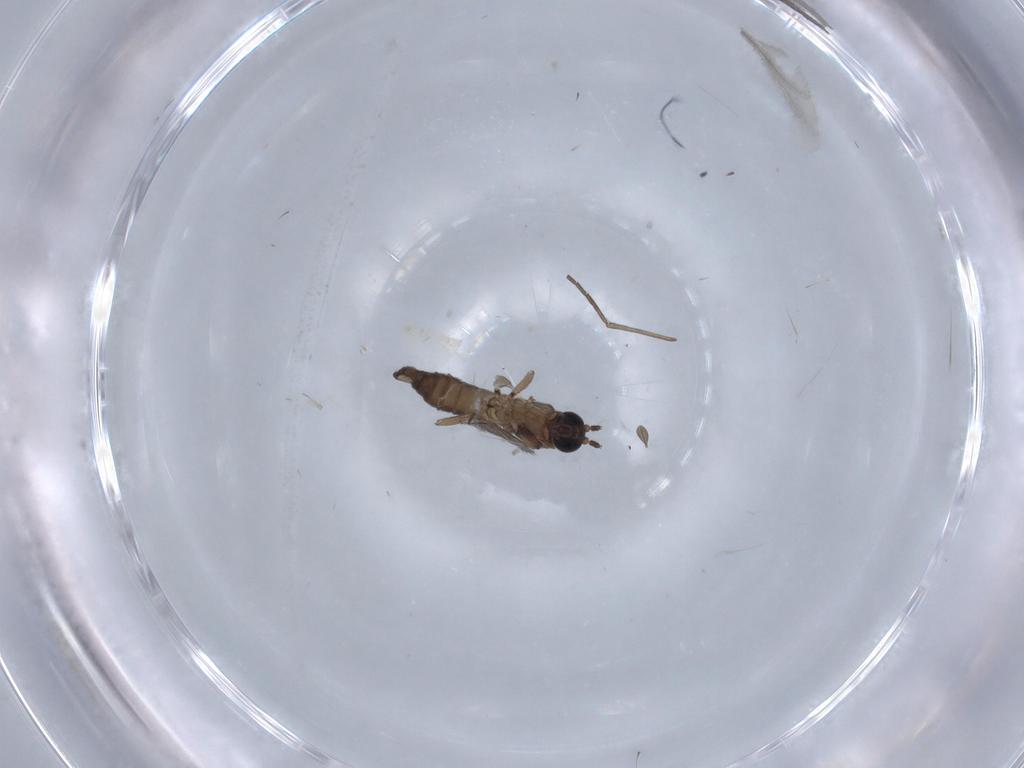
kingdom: Animalia
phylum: Arthropoda
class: Insecta
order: Diptera
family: Sciaridae
